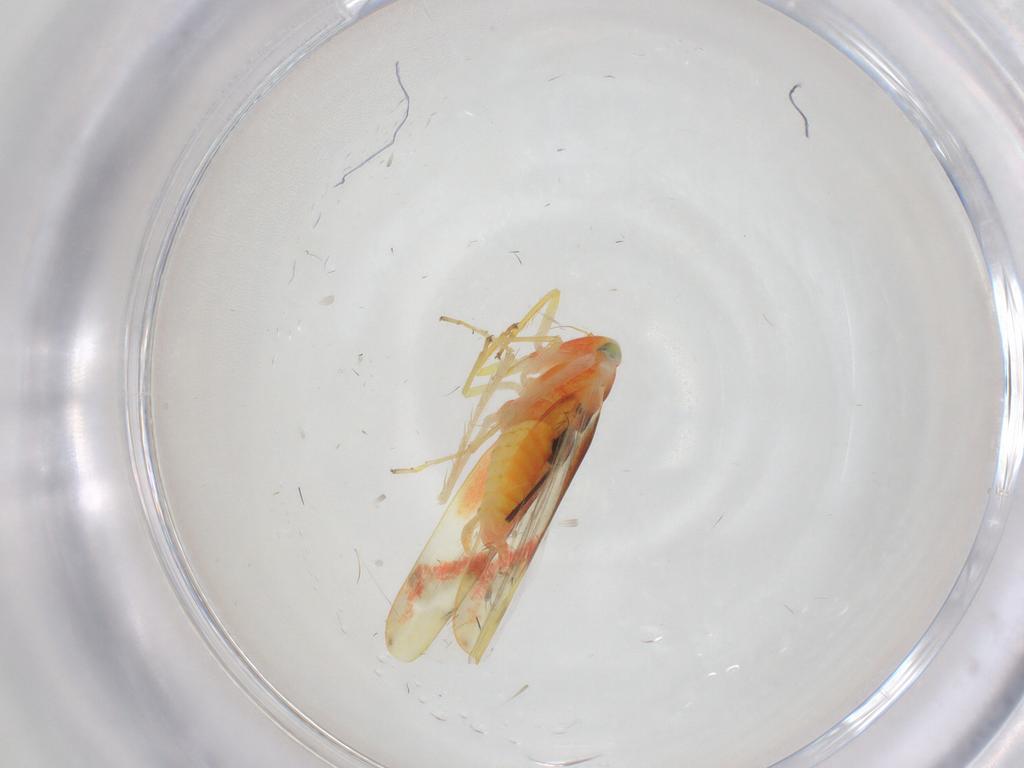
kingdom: Animalia
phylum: Arthropoda
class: Insecta
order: Hemiptera
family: Cicadellidae
